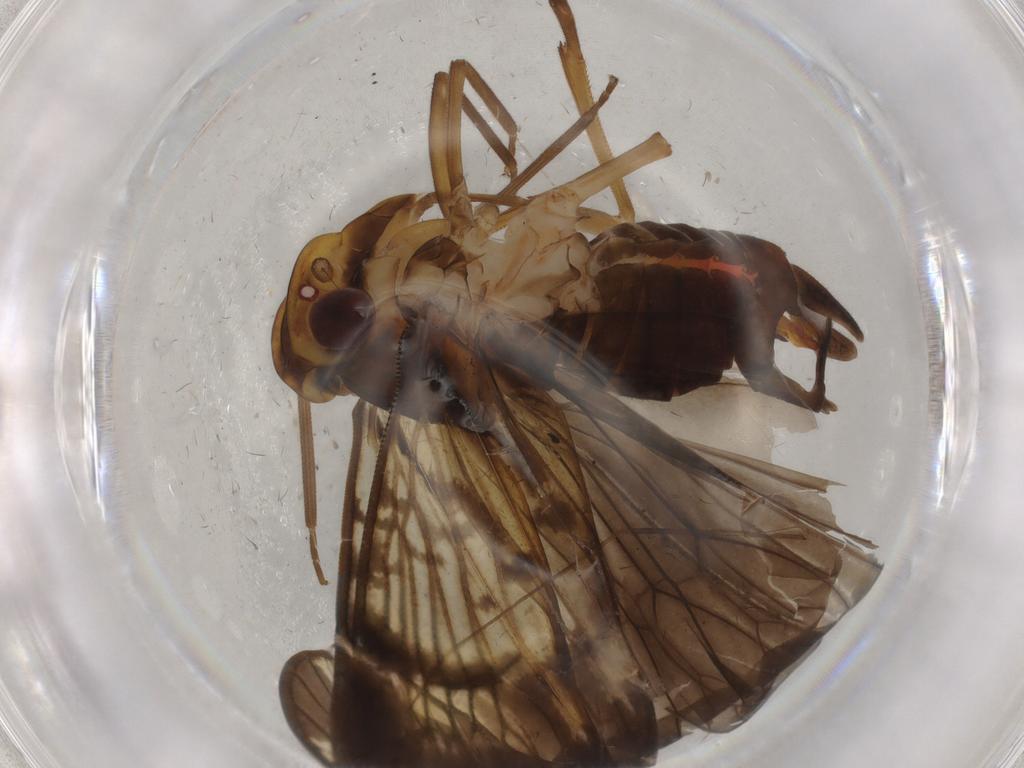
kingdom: Animalia
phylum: Arthropoda
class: Insecta
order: Hemiptera
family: Cixiidae
